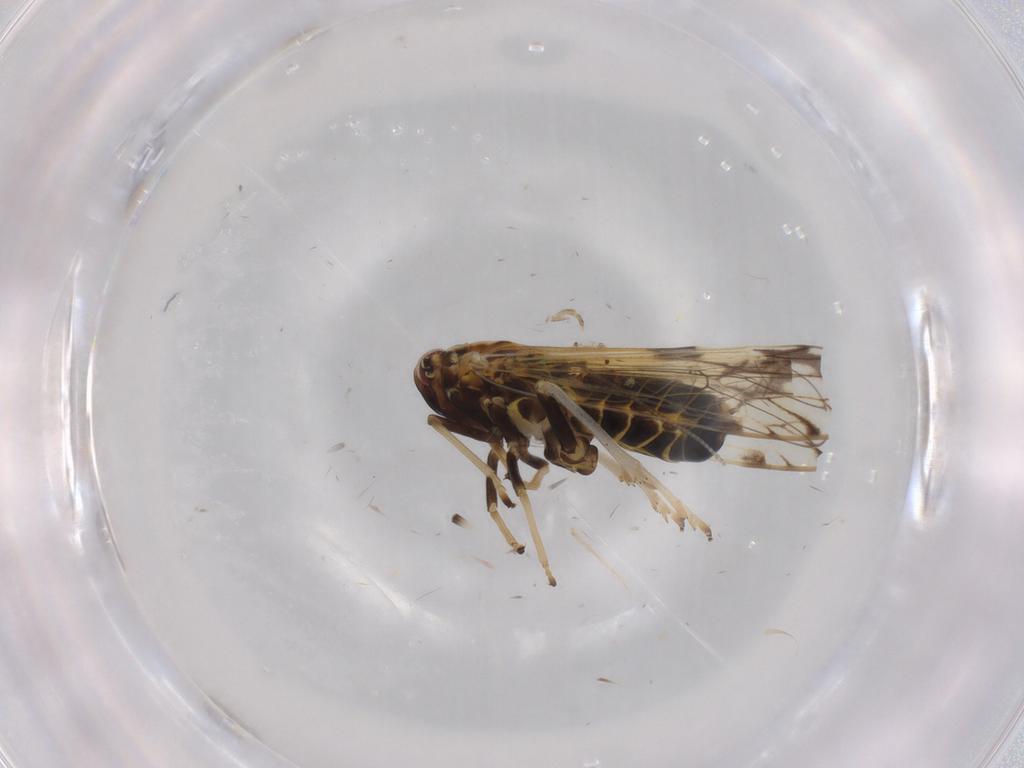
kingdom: Animalia
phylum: Arthropoda
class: Insecta
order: Hemiptera
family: Delphacidae
